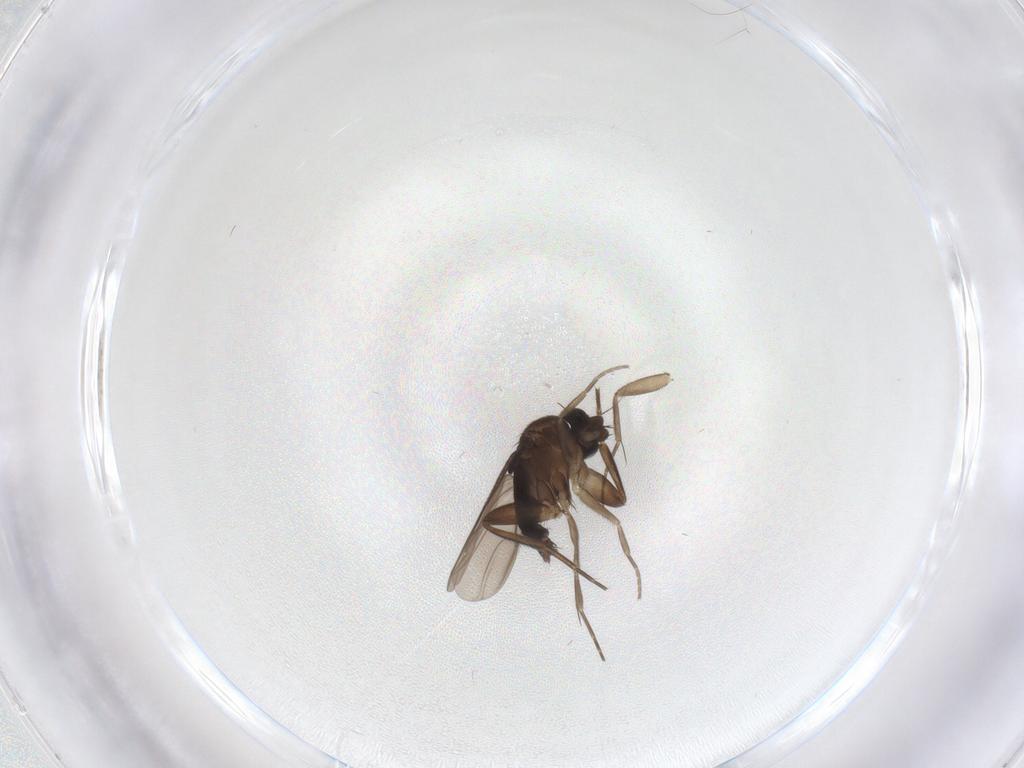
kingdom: Animalia
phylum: Arthropoda
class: Insecta
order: Diptera
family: Phoridae
